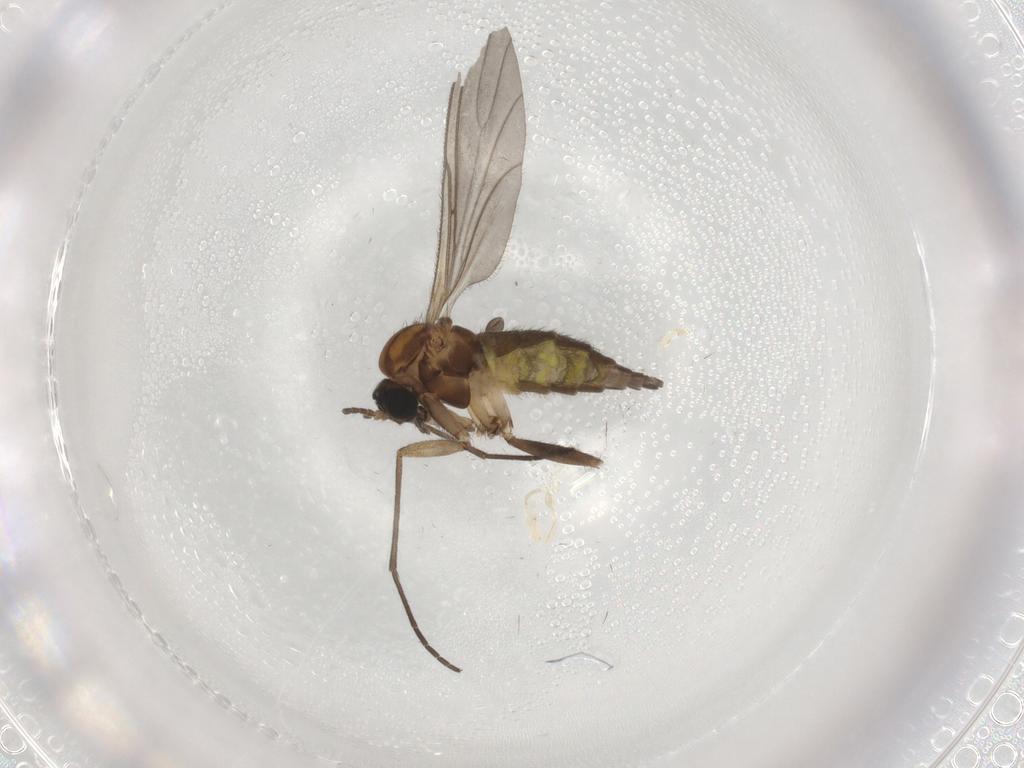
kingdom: Animalia
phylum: Arthropoda
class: Insecta
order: Diptera
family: Sciaridae
